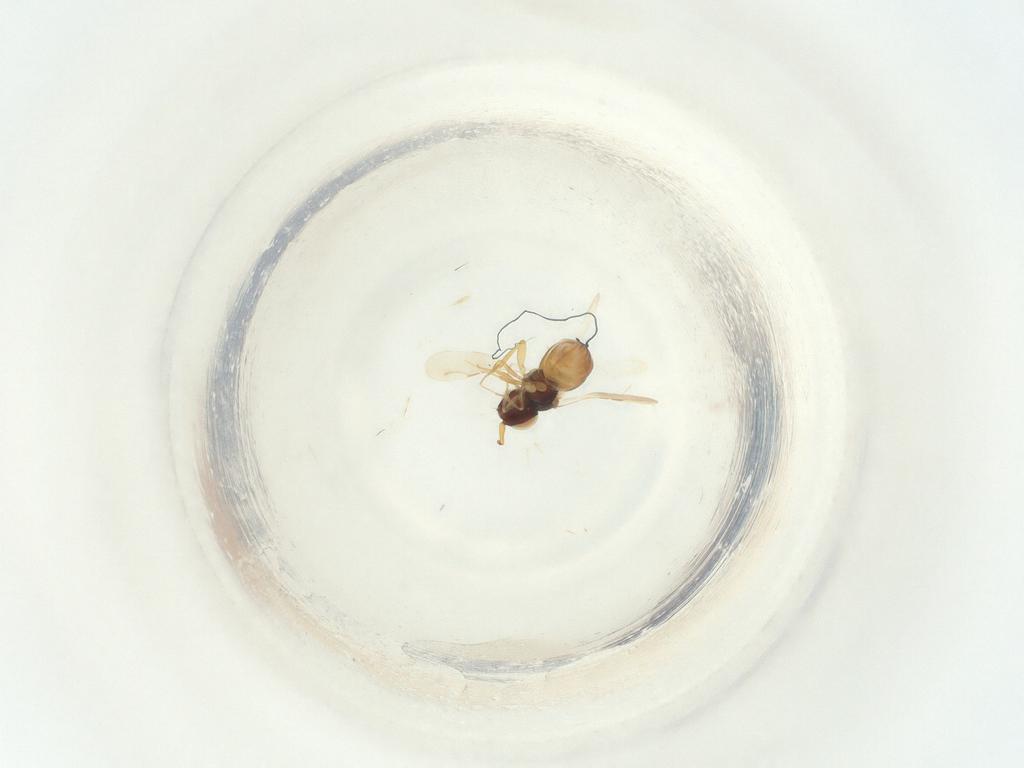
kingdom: Animalia
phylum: Arthropoda
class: Insecta
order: Diptera
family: Sciaridae
